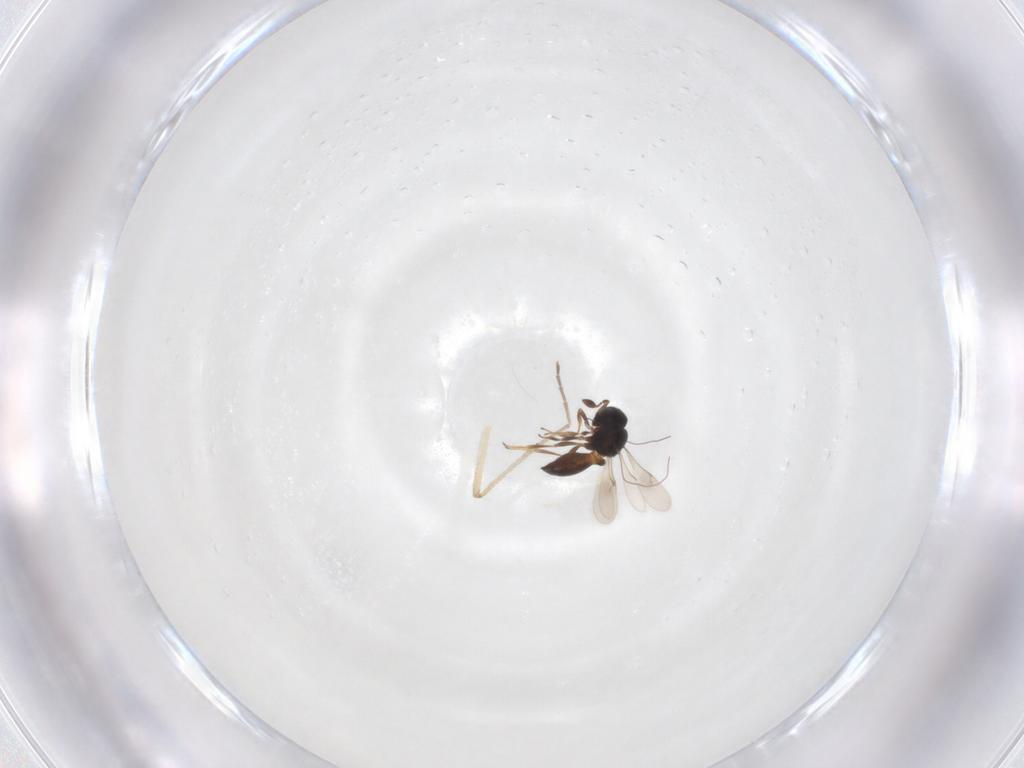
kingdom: Animalia
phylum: Arthropoda
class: Insecta
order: Hymenoptera
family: Scelionidae
